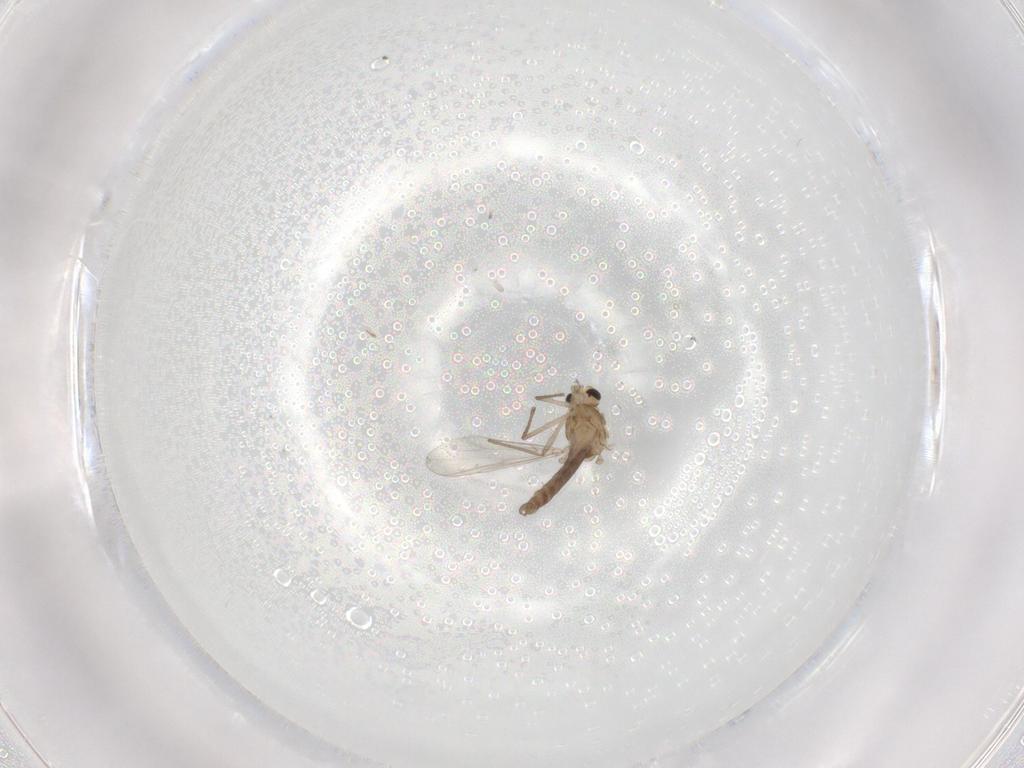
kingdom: Animalia
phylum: Arthropoda
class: Insecta
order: Diptera
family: Chironomidae
